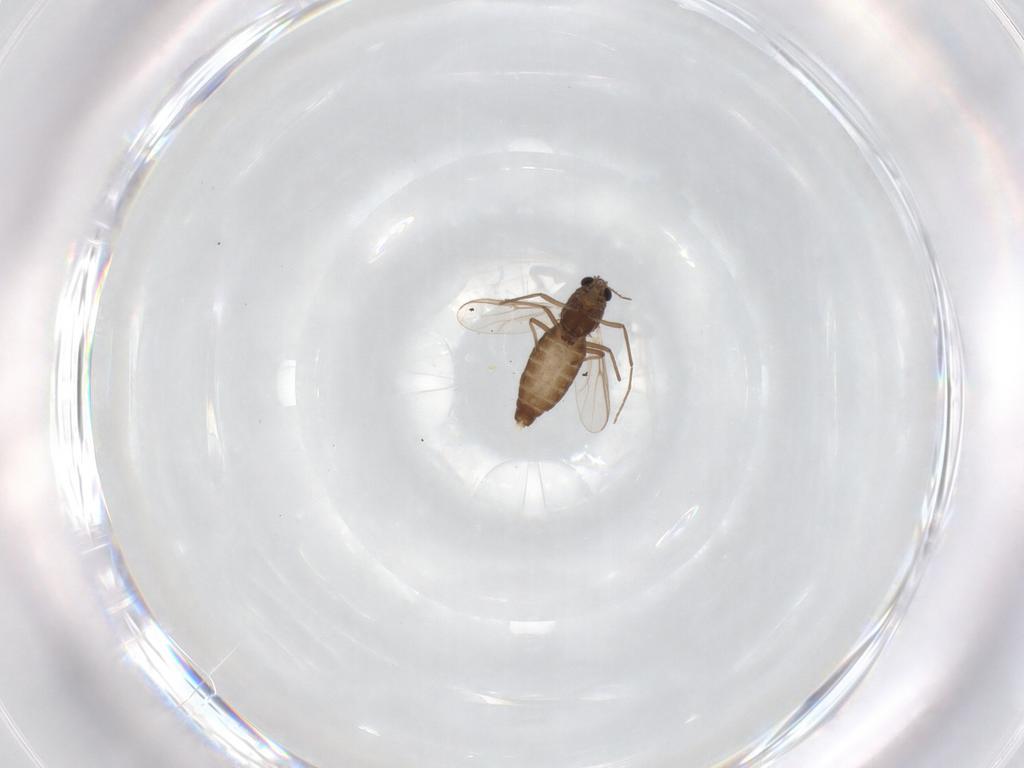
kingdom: Animalia
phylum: Arthropoda
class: Insecta
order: Diptera
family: Chironomidae
